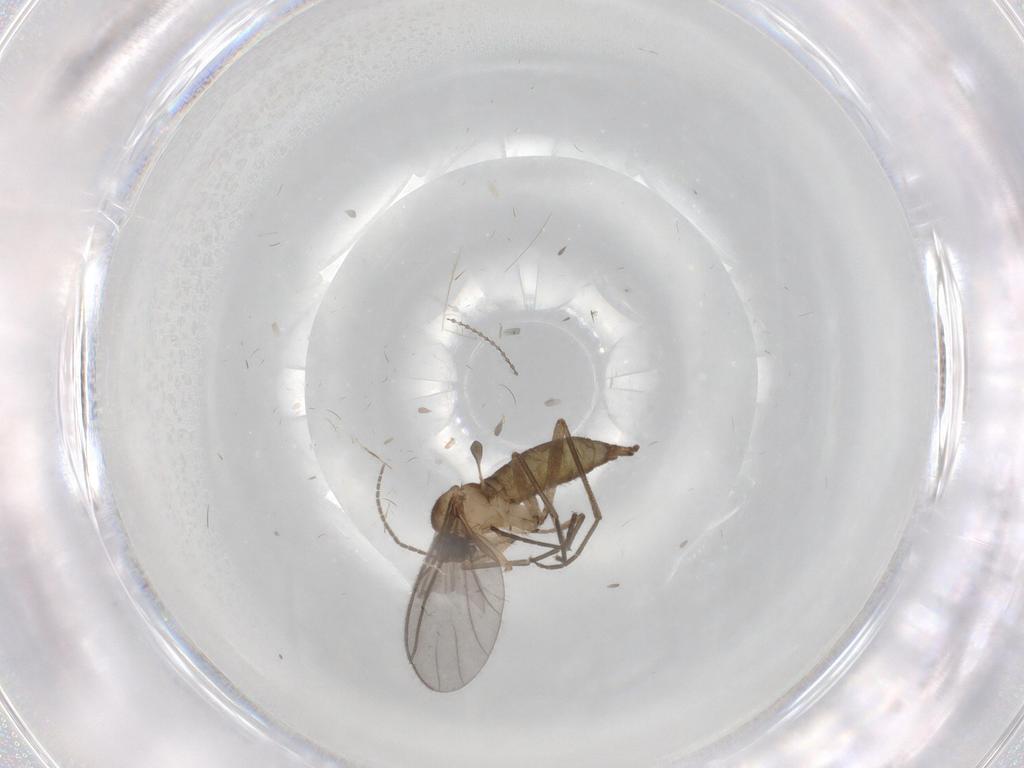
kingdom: Animalia
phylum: Arthropoda
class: Insecta
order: Diptera
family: Sciaridae
